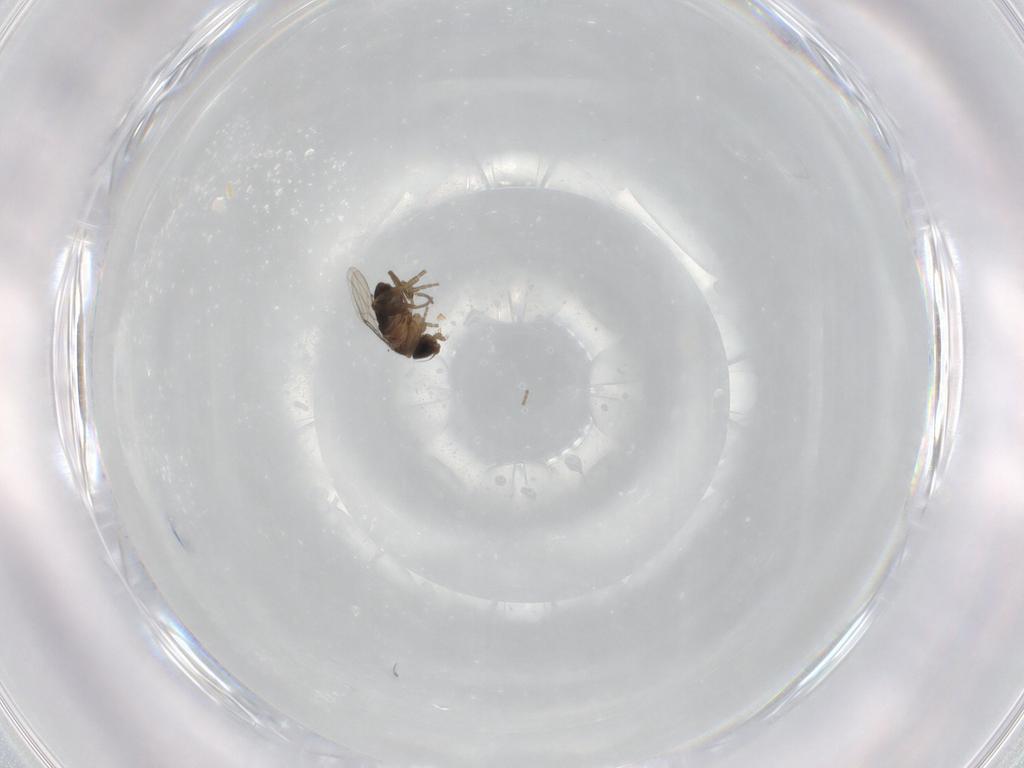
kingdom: Animalia
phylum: Arthropoda
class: Insecta
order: Diptera
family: Phoridae
